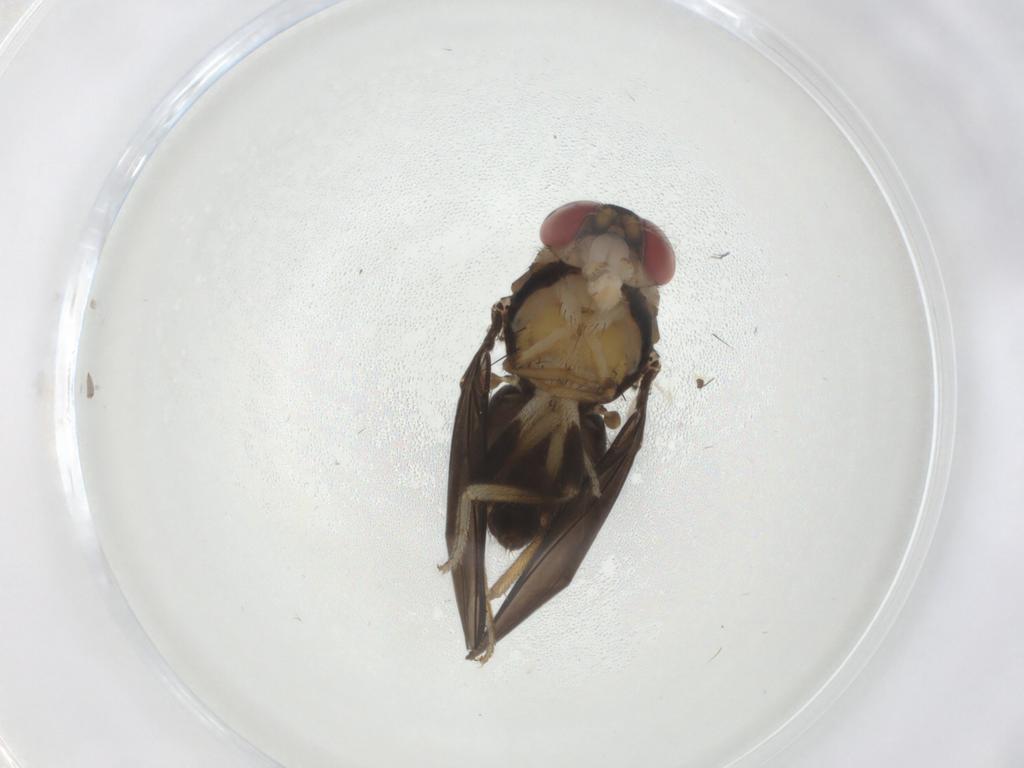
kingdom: Animalia
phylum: Arthropoda
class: Insecta
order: Diptera
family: Drosophilidae
